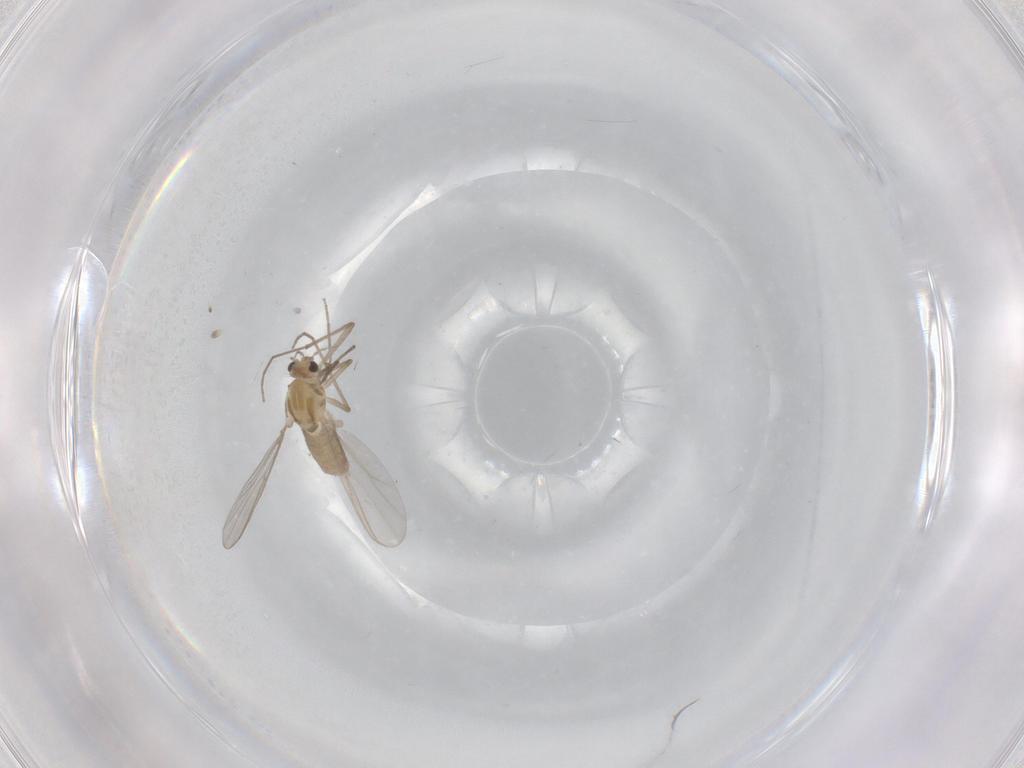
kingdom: Animalia
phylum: Arthropoda
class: Insecta
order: Diptera
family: Chironomidae
